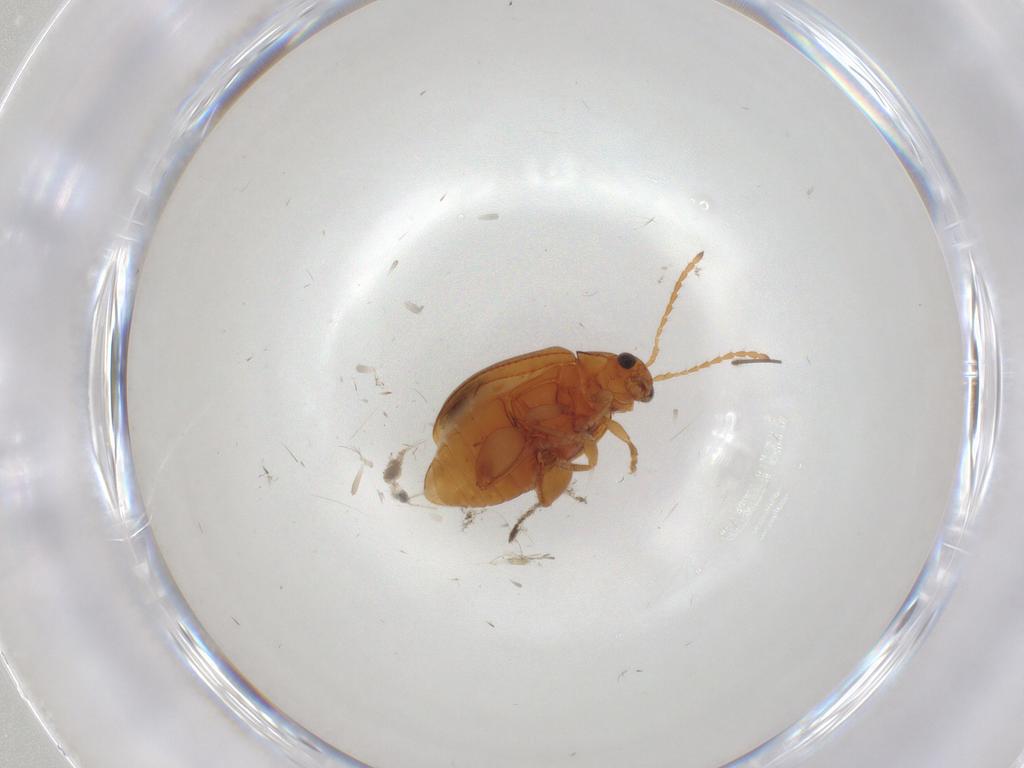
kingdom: Animalia
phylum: Arthropoda
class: Insecta
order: Coleoptera
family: Chrysomelidae
